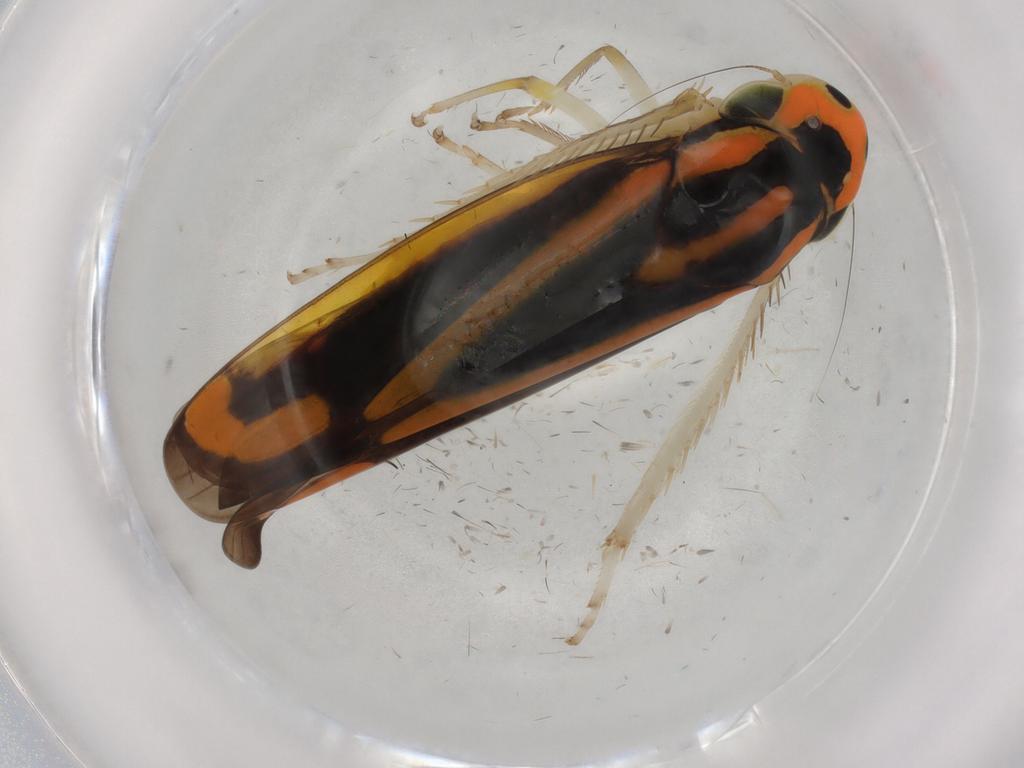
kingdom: Animalia
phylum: Arthropoda
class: Insecta
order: Hemiptera
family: Cicadellidae
